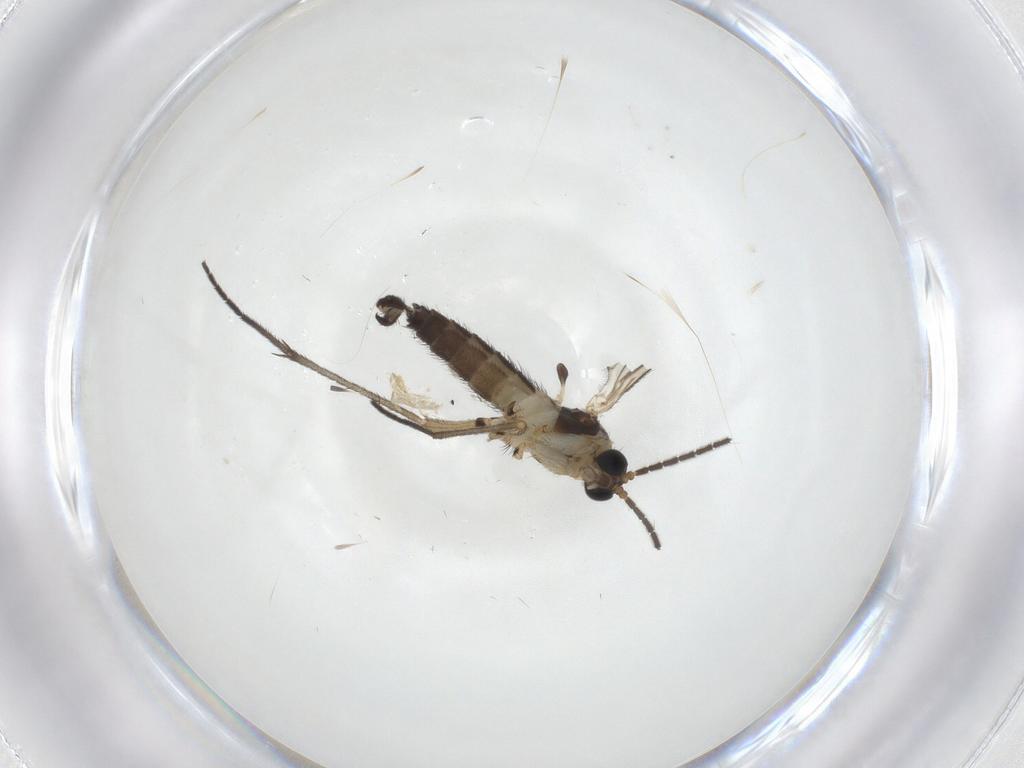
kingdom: Animalia
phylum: Arthropoda
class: Insecta
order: Diptera
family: Sciaridae
